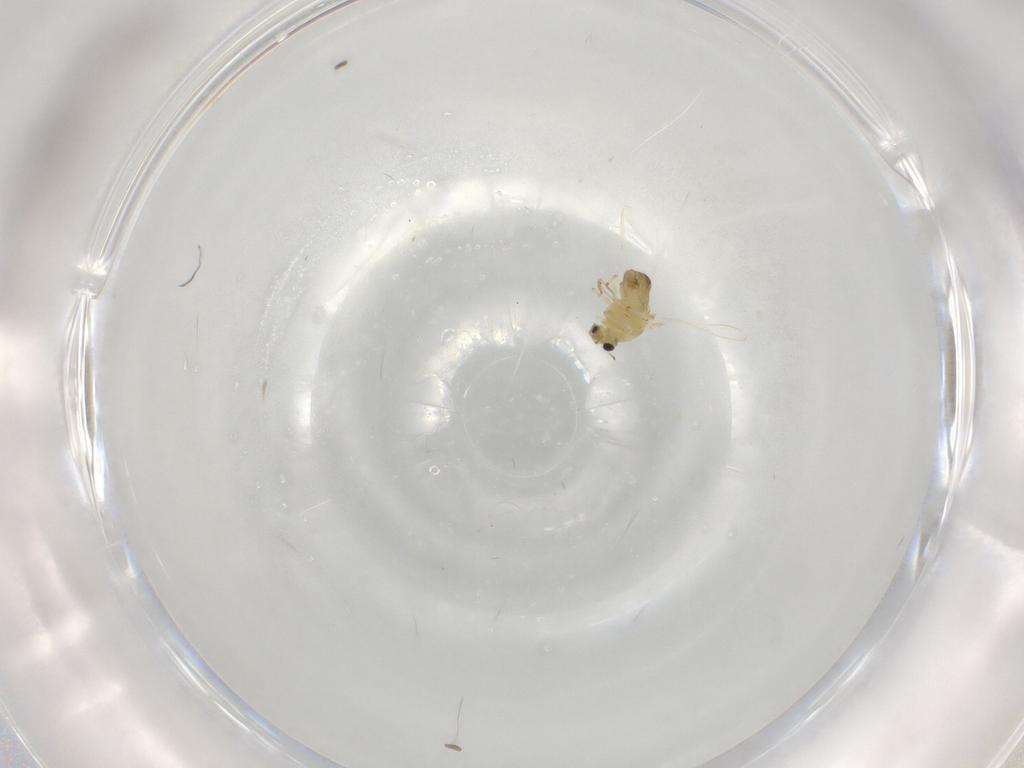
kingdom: Animalia
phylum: Arthropoda
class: Insecta
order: Diptera
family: Chironomidae
